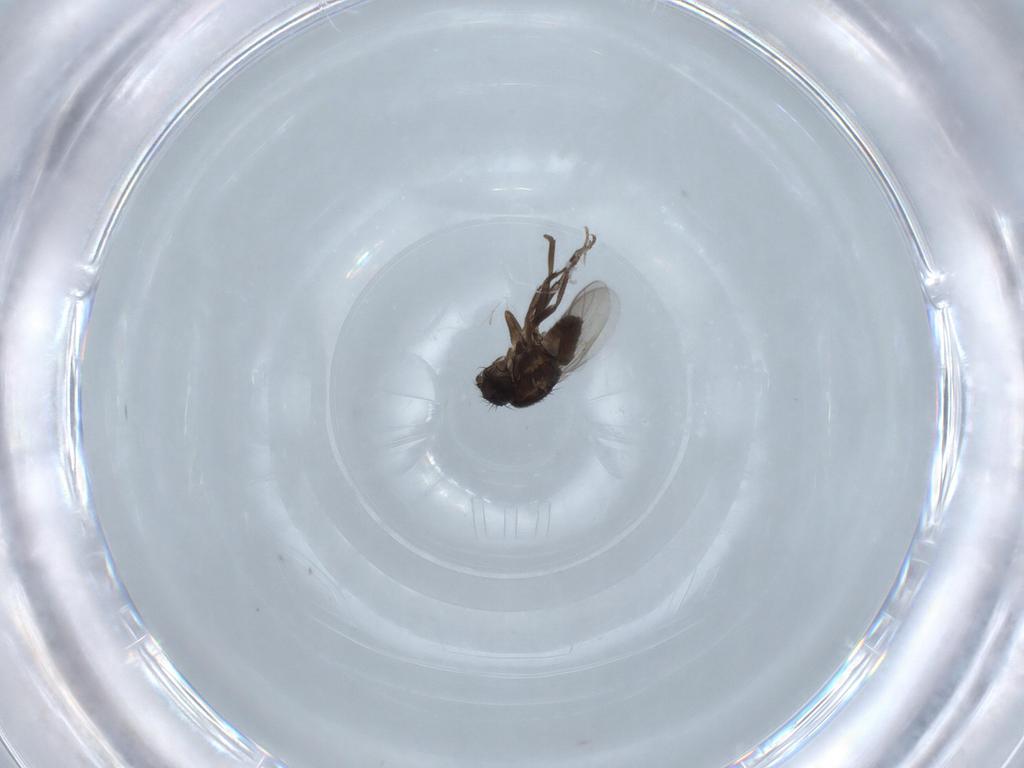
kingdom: Animalia
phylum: Arthropoda
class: Insecta
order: Diptera
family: Sphaeroceridae
